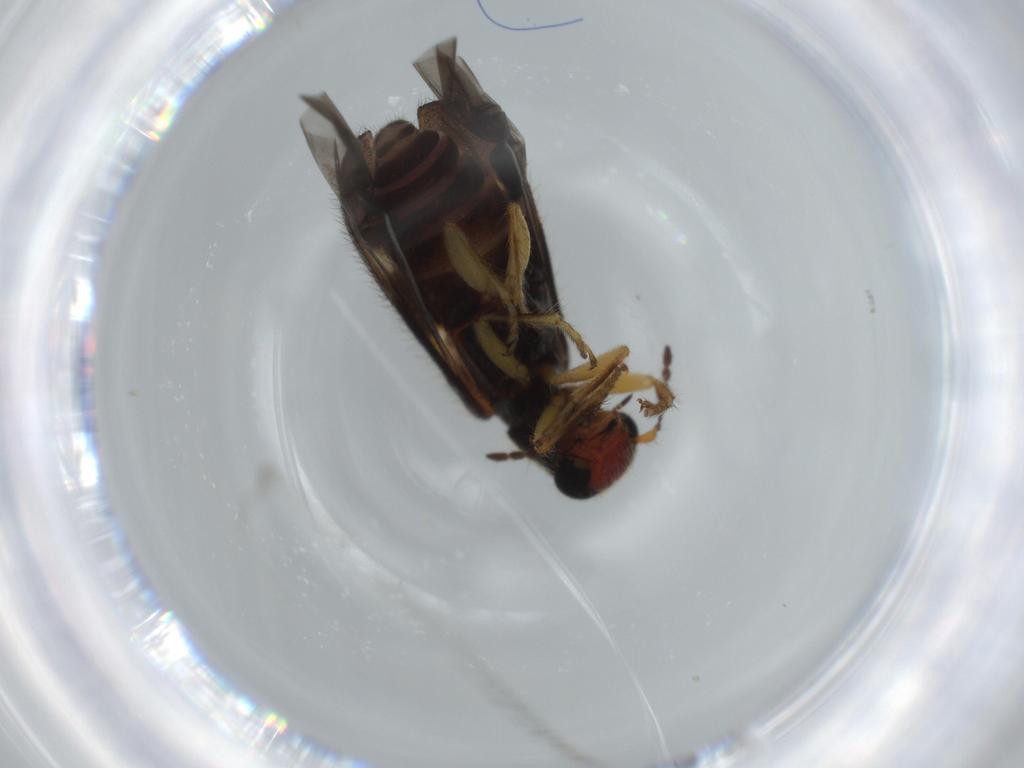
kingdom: Animalia
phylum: Arthropoda
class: Insecta
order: Coleoptera
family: Cleridae
